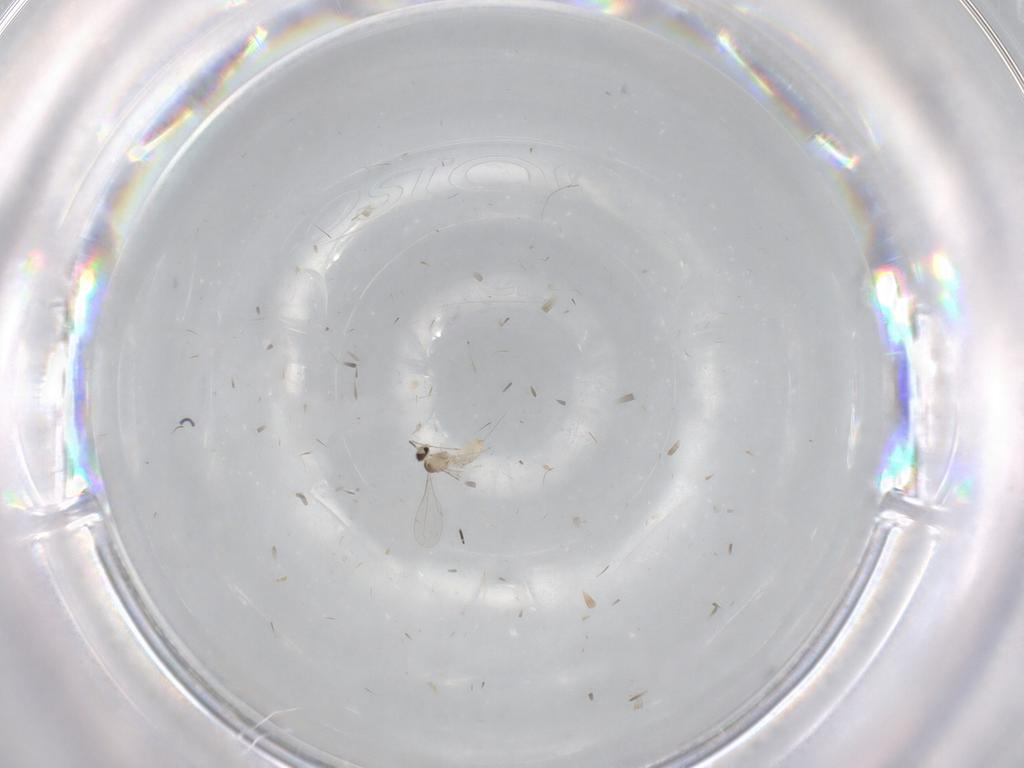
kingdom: Animalia
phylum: Arthropoda
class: Insecta
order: Diptera
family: Cecidomyiidae
